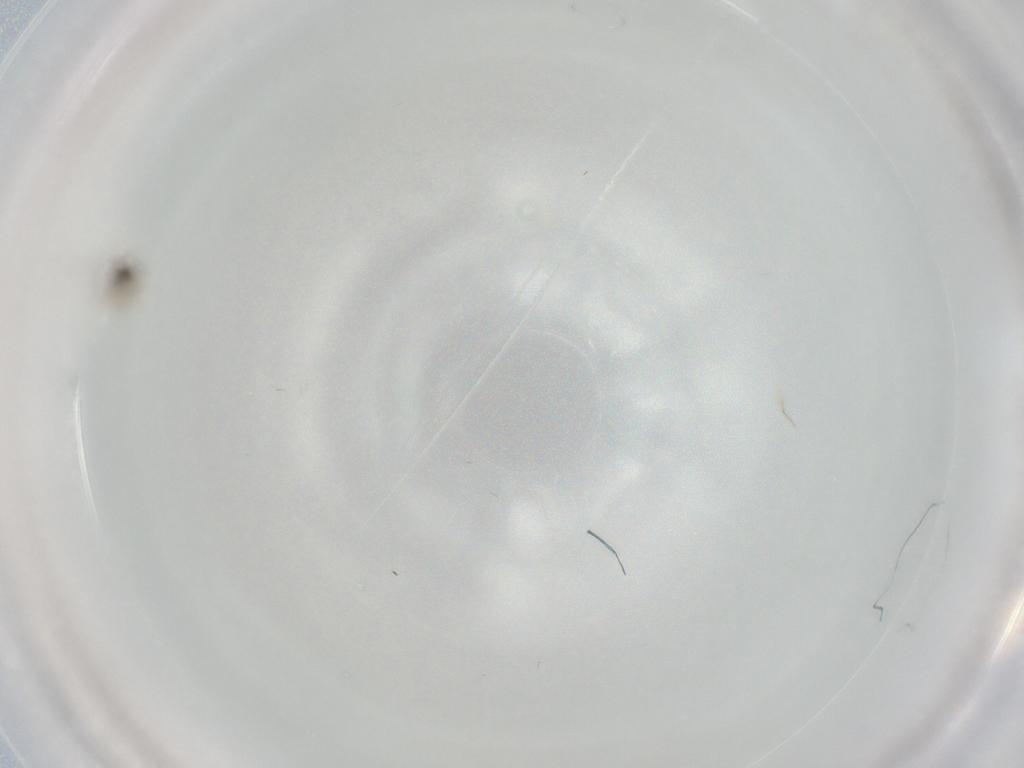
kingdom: Animalia
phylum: Arthropoda
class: Insecta
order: Diptera
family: Cecidomyiidae
